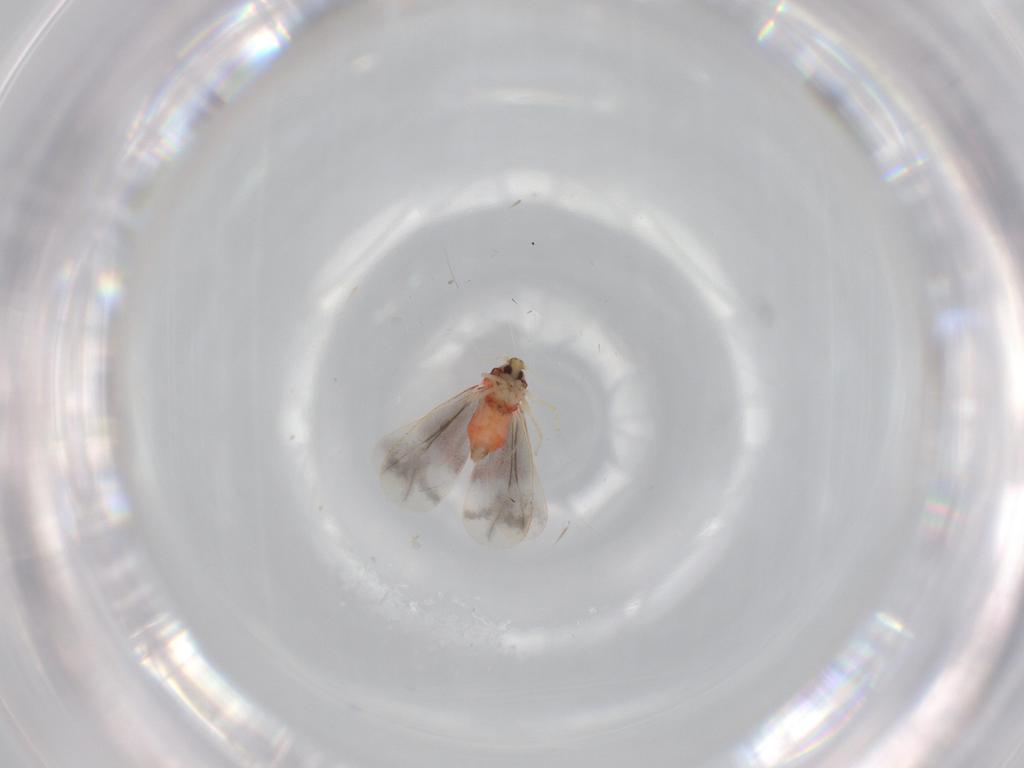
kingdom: Animalia
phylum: Arthropoda
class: Insecta
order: Hemiptera
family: Aleyrodidae
